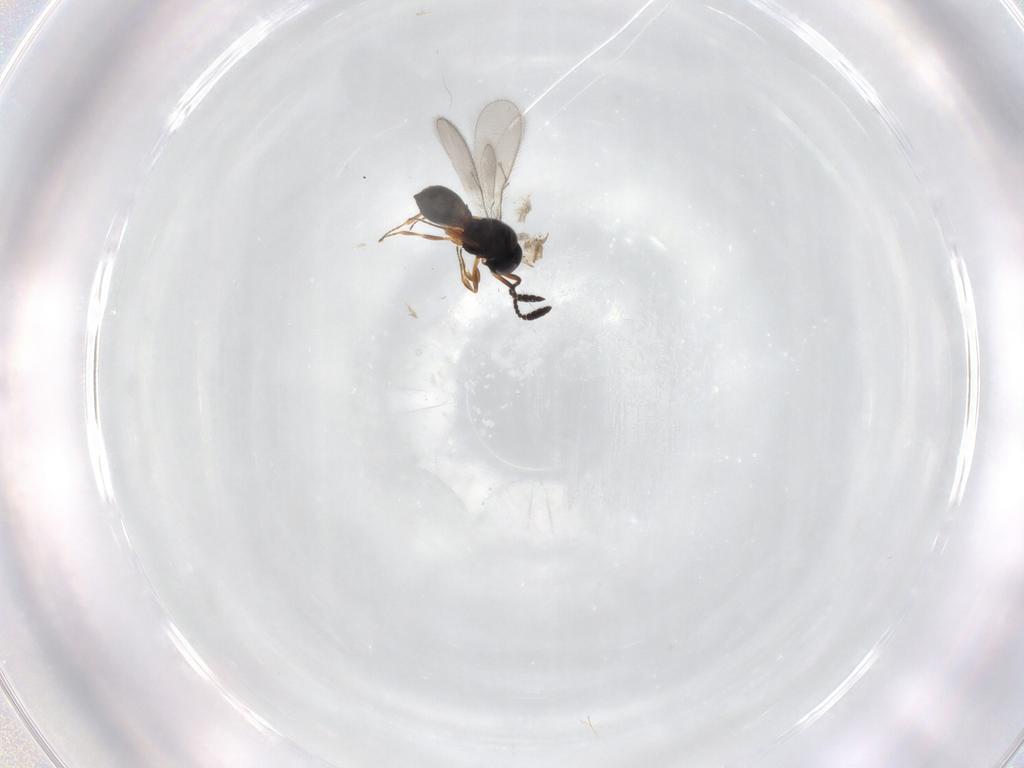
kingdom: Animalia
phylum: Arthropoda
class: Insecta
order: Hymenoptera
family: Scelionidae
